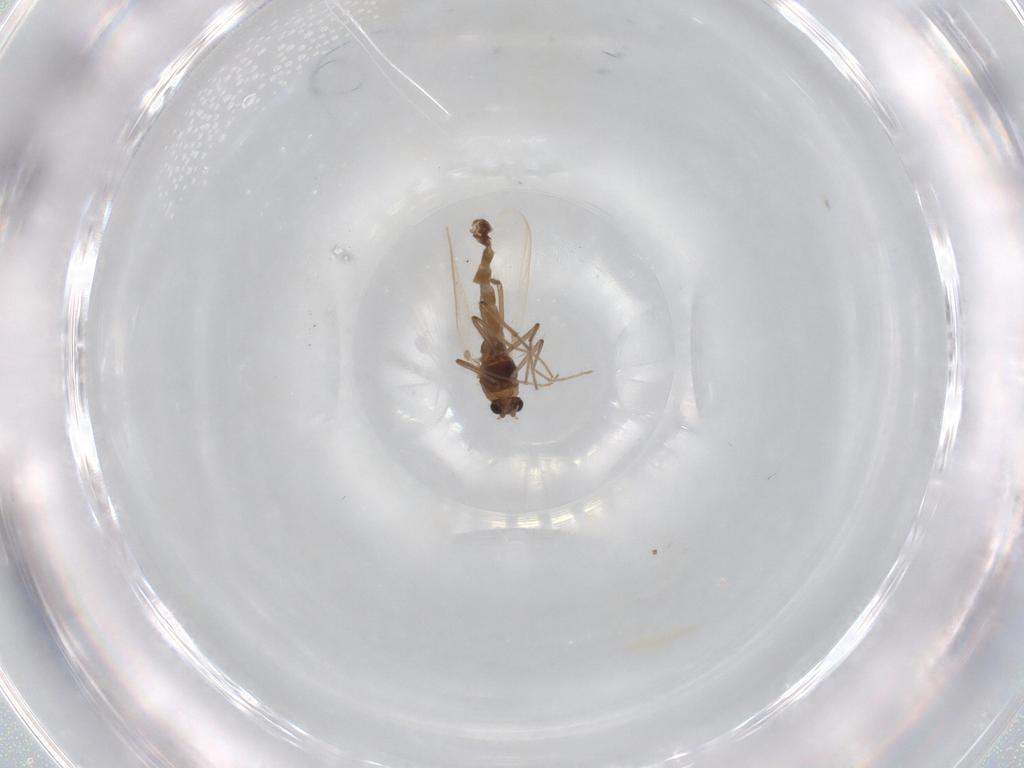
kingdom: Animalia
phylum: Arthropoda
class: Insecta
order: Diptera
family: Chironomidae
